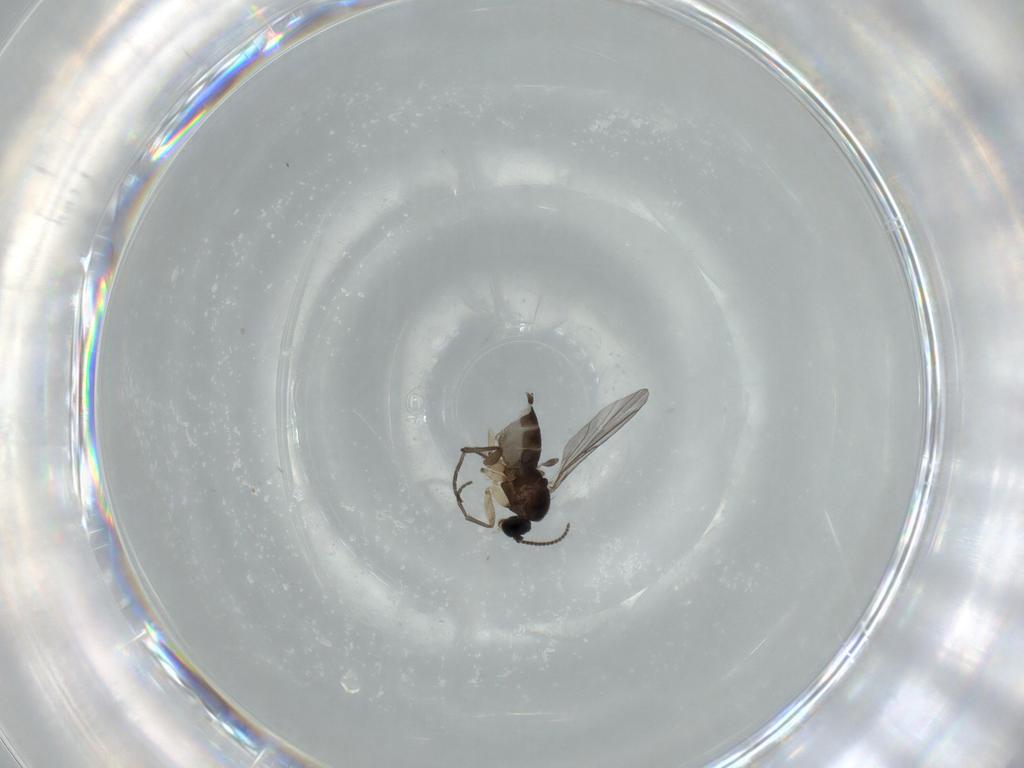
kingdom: Animalia
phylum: Arthropoda
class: Insecta
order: Diptera
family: Sciaridae
